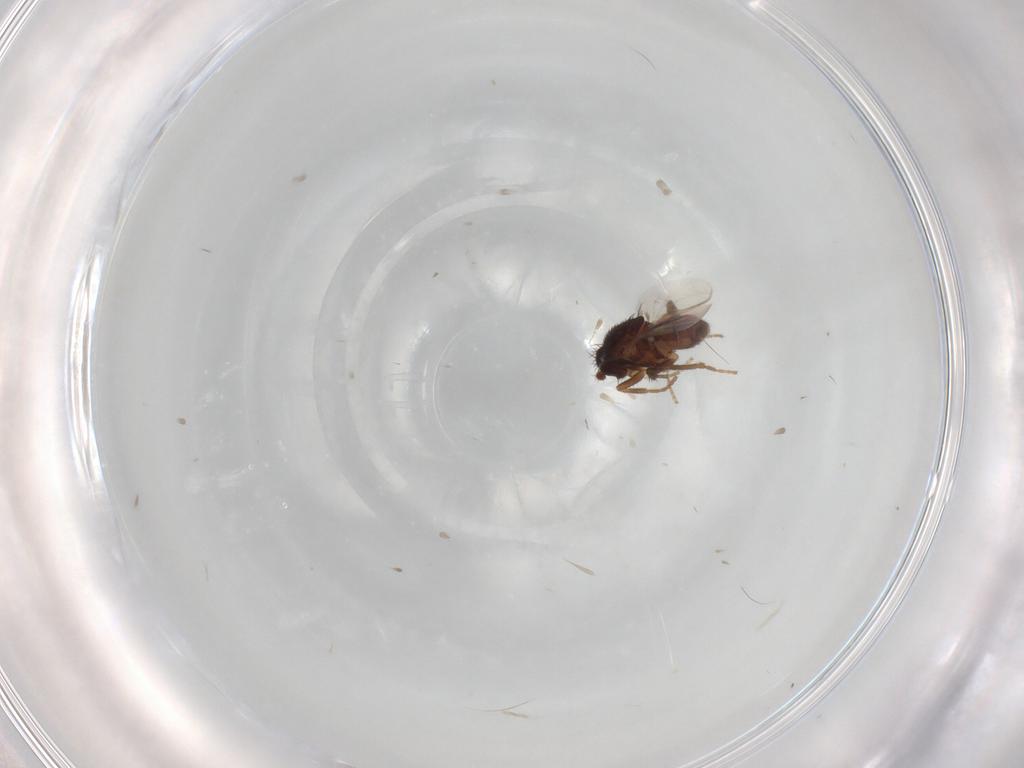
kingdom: Animalia
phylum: Arthropoda
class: Insecta
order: Diptera
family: Sphaeroceridae
